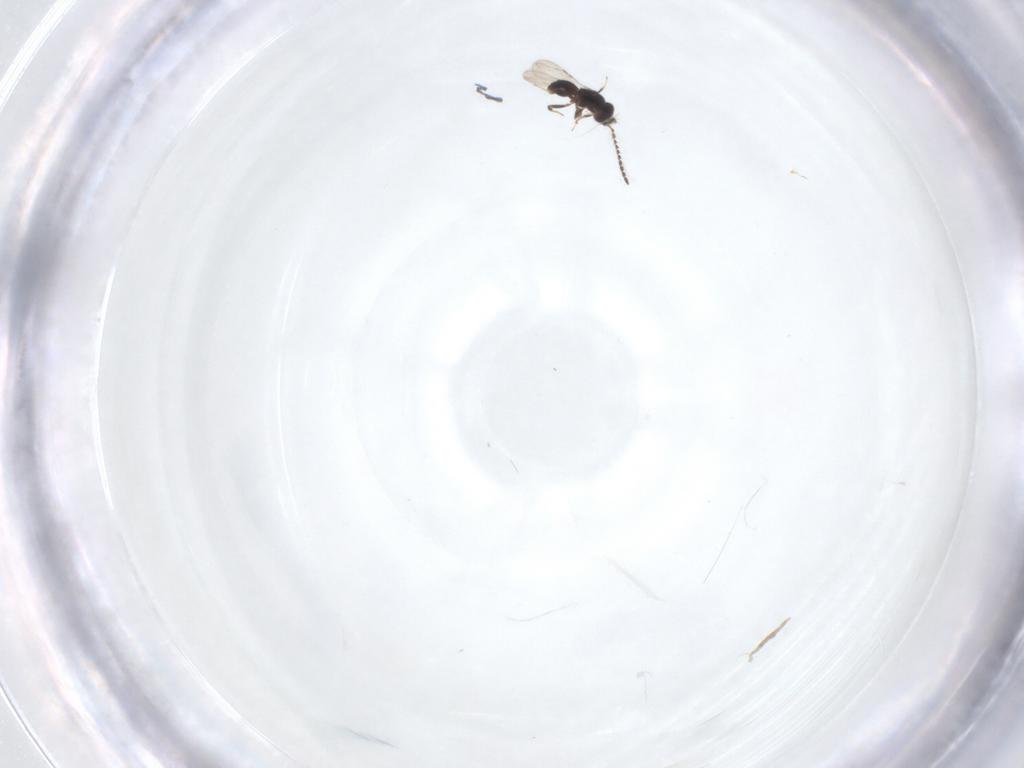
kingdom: Animalia
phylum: Arthropoda
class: Insecta
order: Hymenoptera
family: Scelionidae
